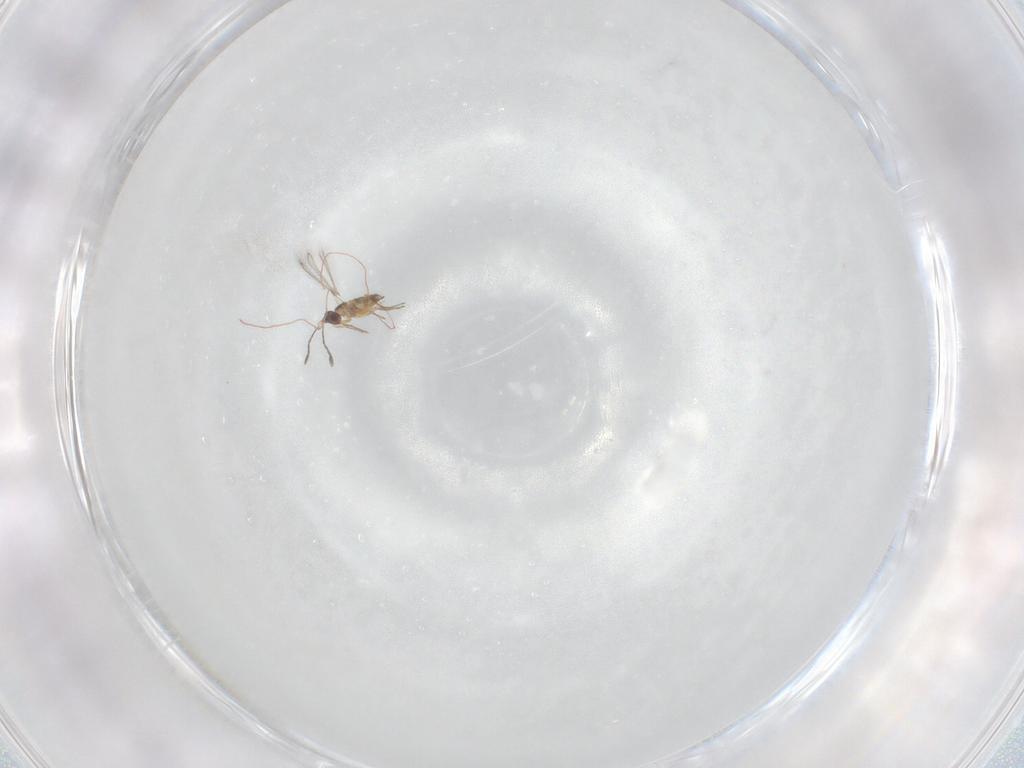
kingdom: Animalia
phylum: Arthropoda
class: Insecta
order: Hymenoptera
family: Mymaridae
